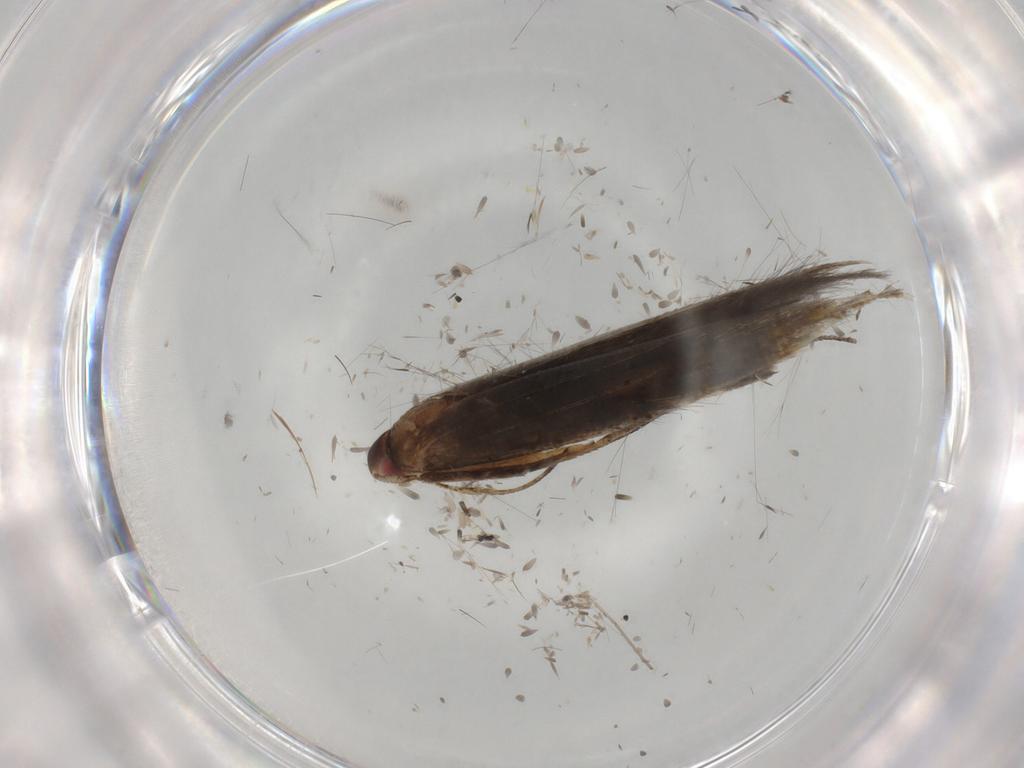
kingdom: Animalia
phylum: Arthropoda
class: Insecta
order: Lepidoptera
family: Cosmopterigidae
